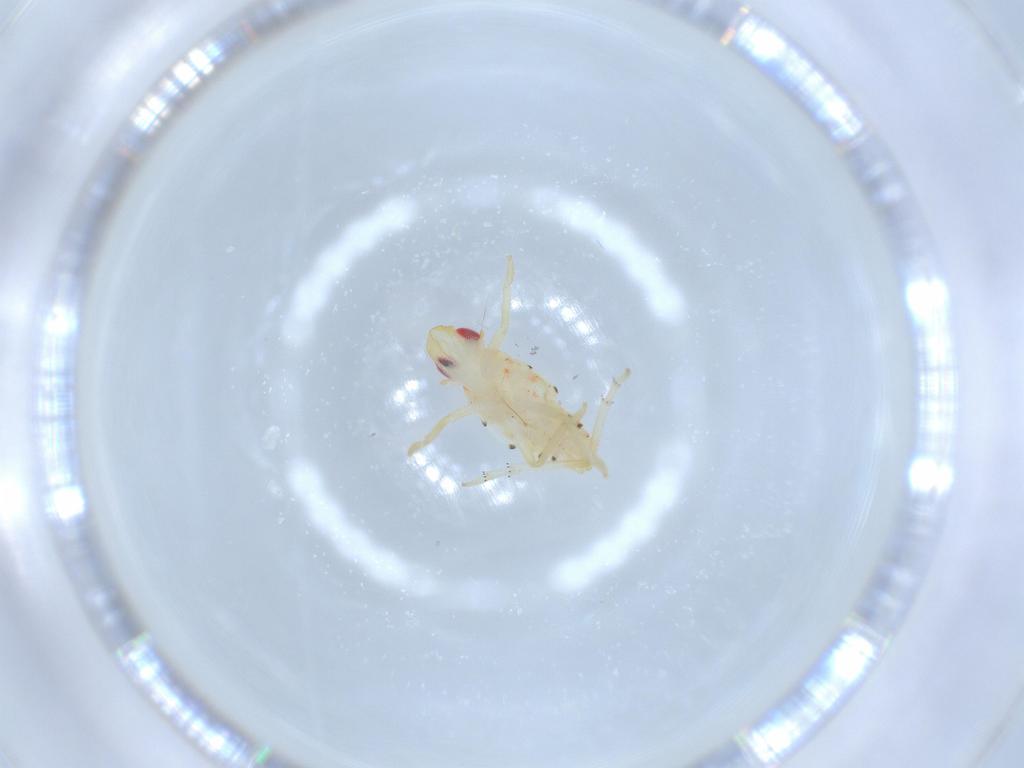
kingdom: Animalia
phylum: Arthropoda
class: Insecta
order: Hemiptera
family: Tropiduchidae
